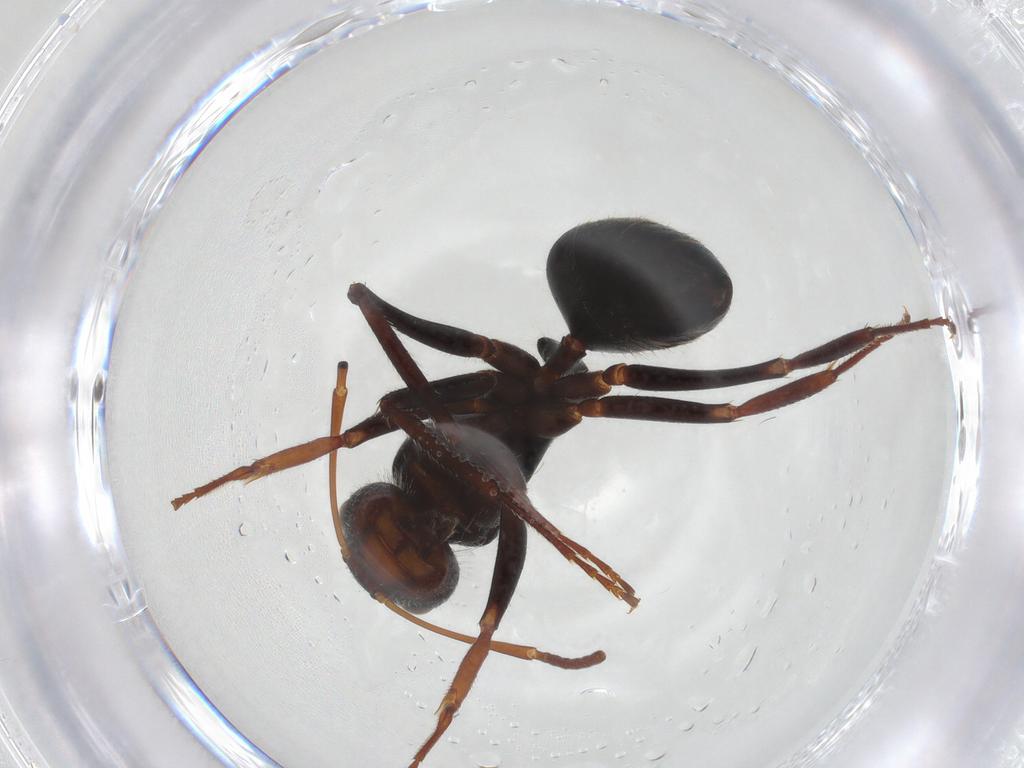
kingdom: Animalia
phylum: Arthropoda
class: Insecta
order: Hymenoptera
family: Formicidae
